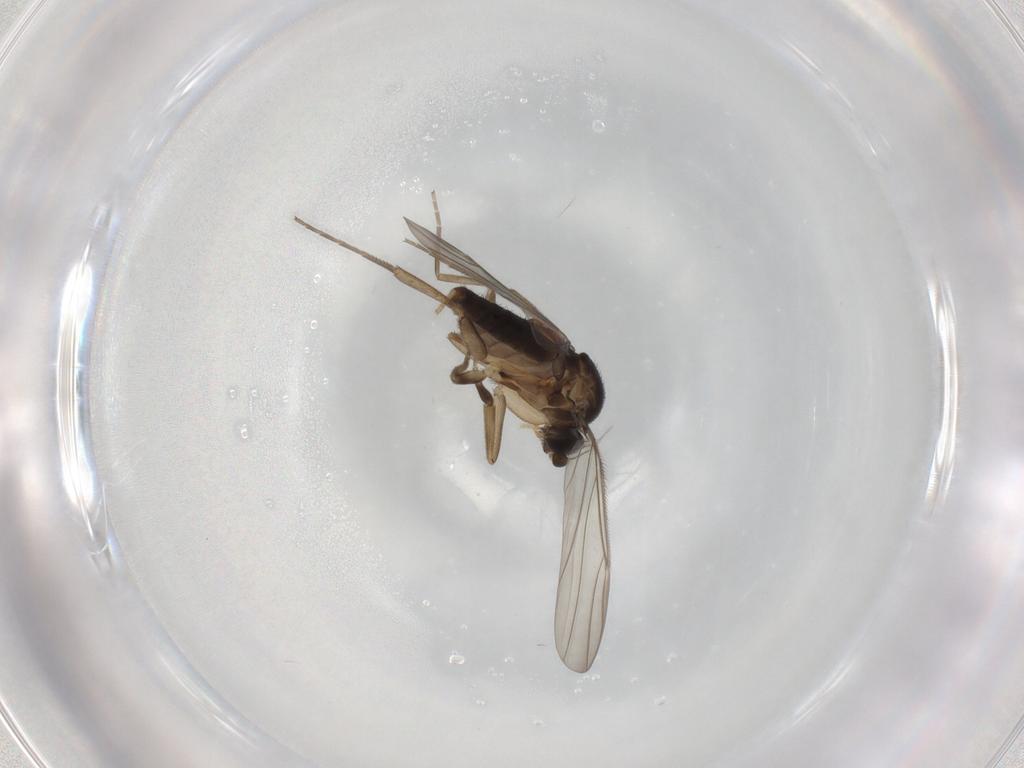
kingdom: Animalia
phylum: Arthropoda
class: Insecta
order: Diptera
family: Phoridae
